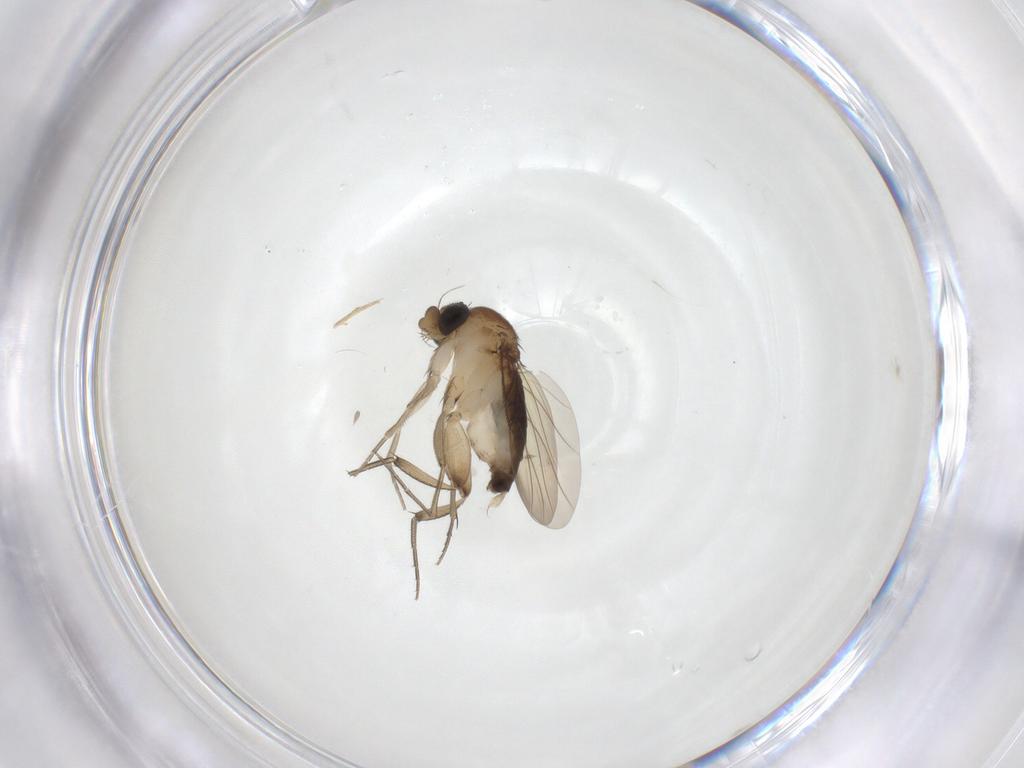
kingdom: Animalia
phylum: Arthropoda
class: Insecta
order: Diptera
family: Phoridae
